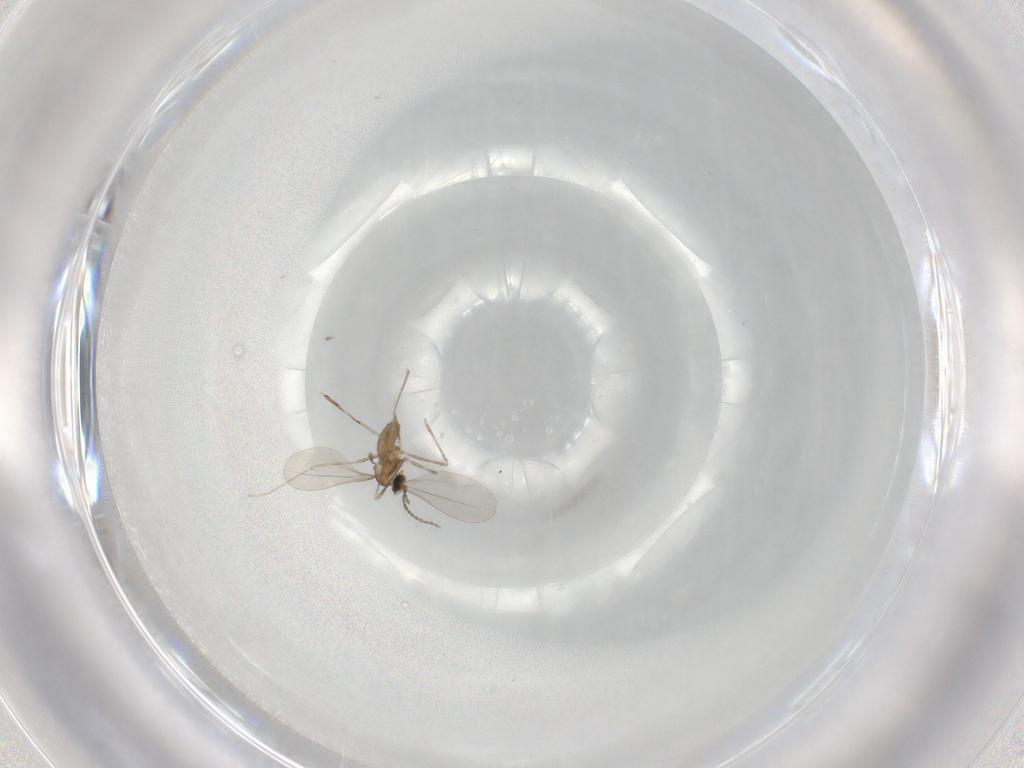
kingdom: Animalia
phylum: Arthropoda
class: Insecta
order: Diptera
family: Cecidomyiidae
